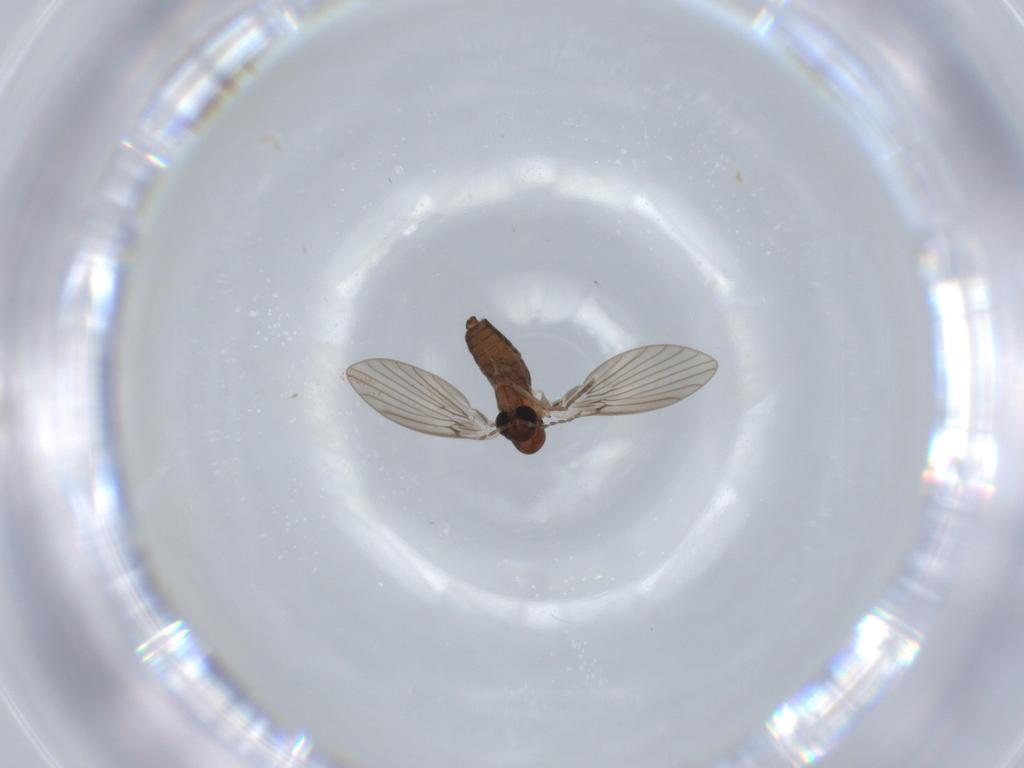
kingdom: Animalia
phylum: Arthropoda
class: Insecta
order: Diptera
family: Psychodidae
